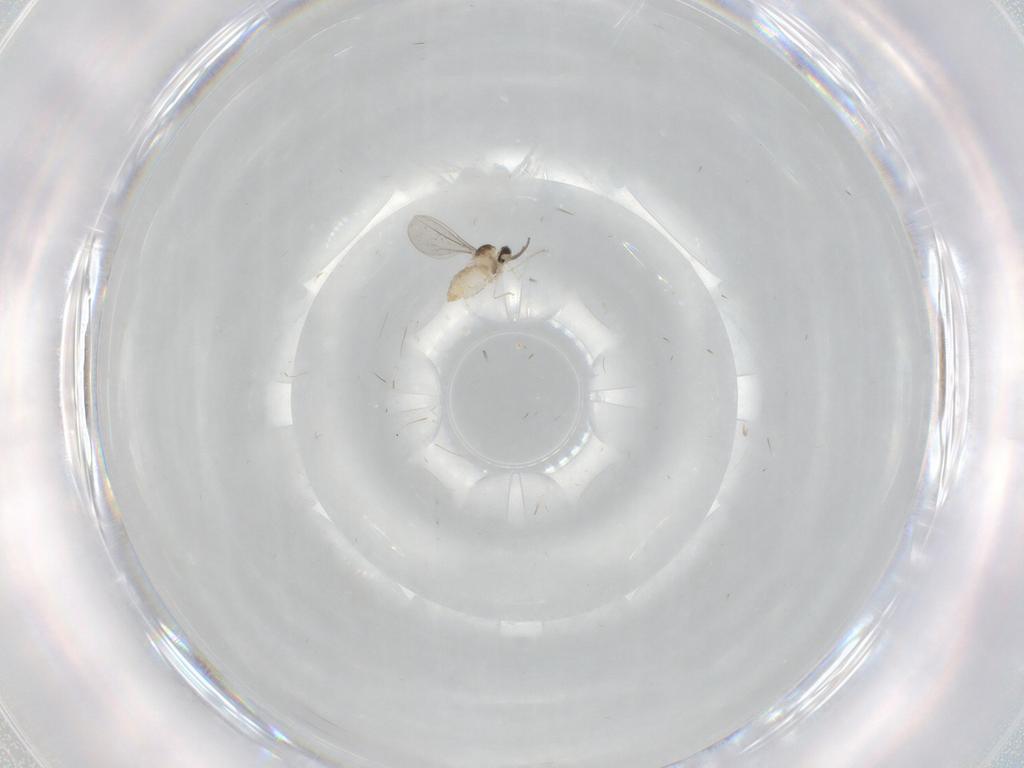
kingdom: Animalia
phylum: Arthropoda
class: Insecta
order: Diptera
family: Cecidomyiidae
